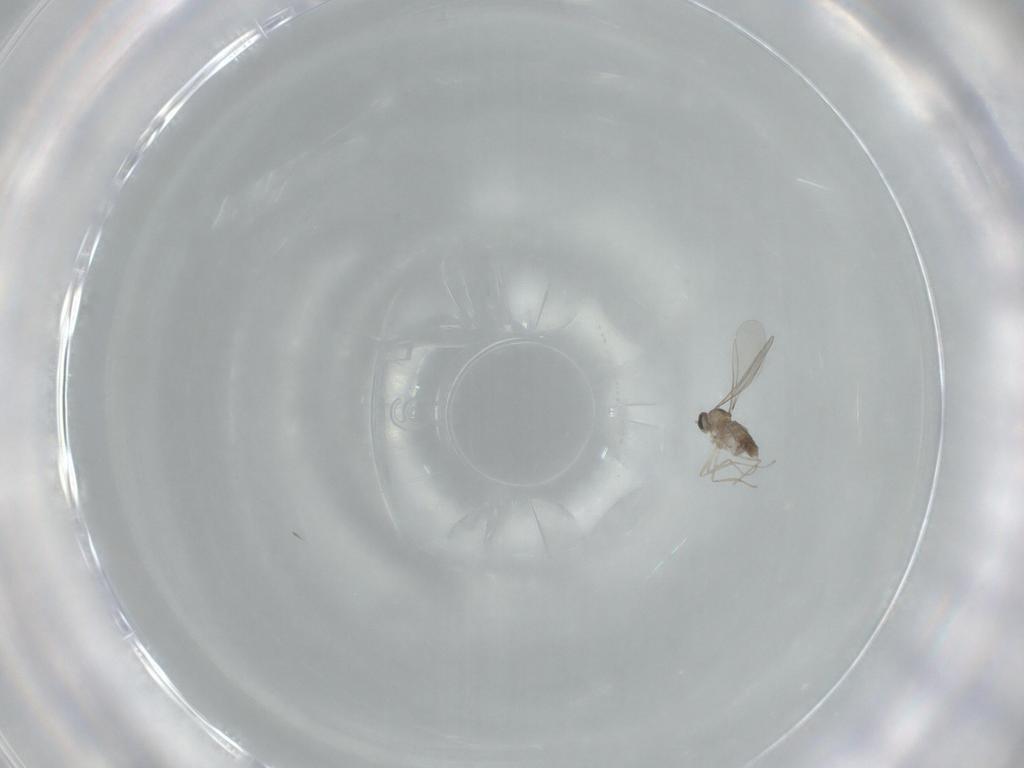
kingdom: Animalia
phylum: Arthropoda
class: Insecta
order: Diptera
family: Cecidomyiidae
